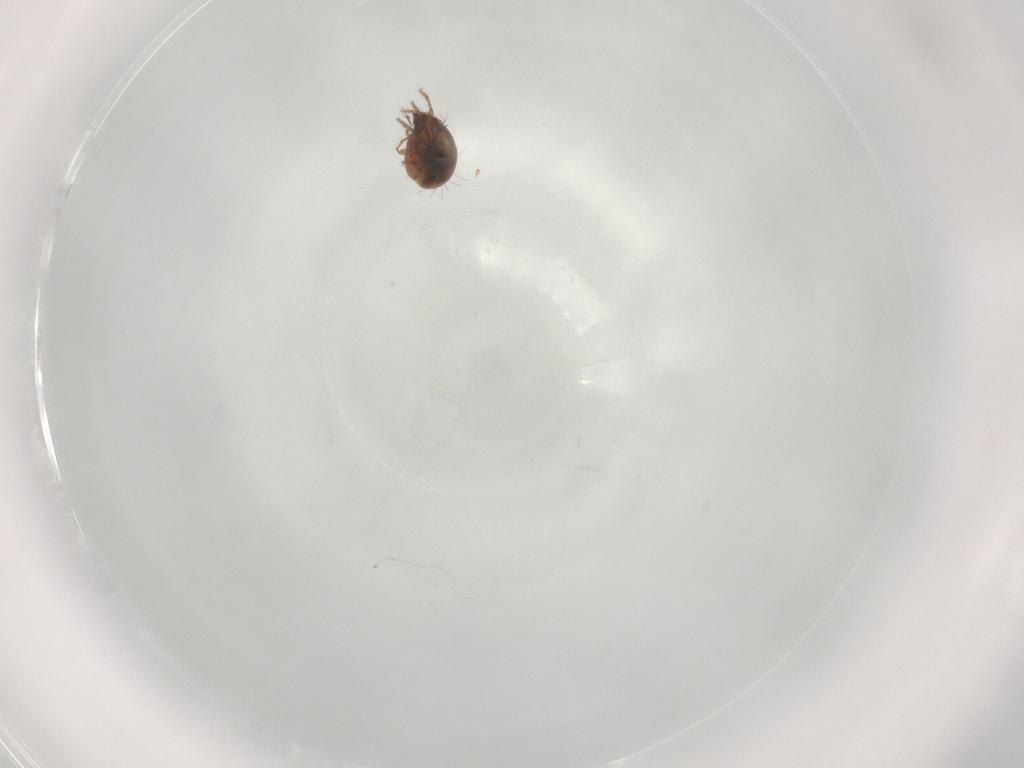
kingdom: Animalia
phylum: Arthropoda
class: Arachnida
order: Sarcoptiformes
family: Humerobatidae
